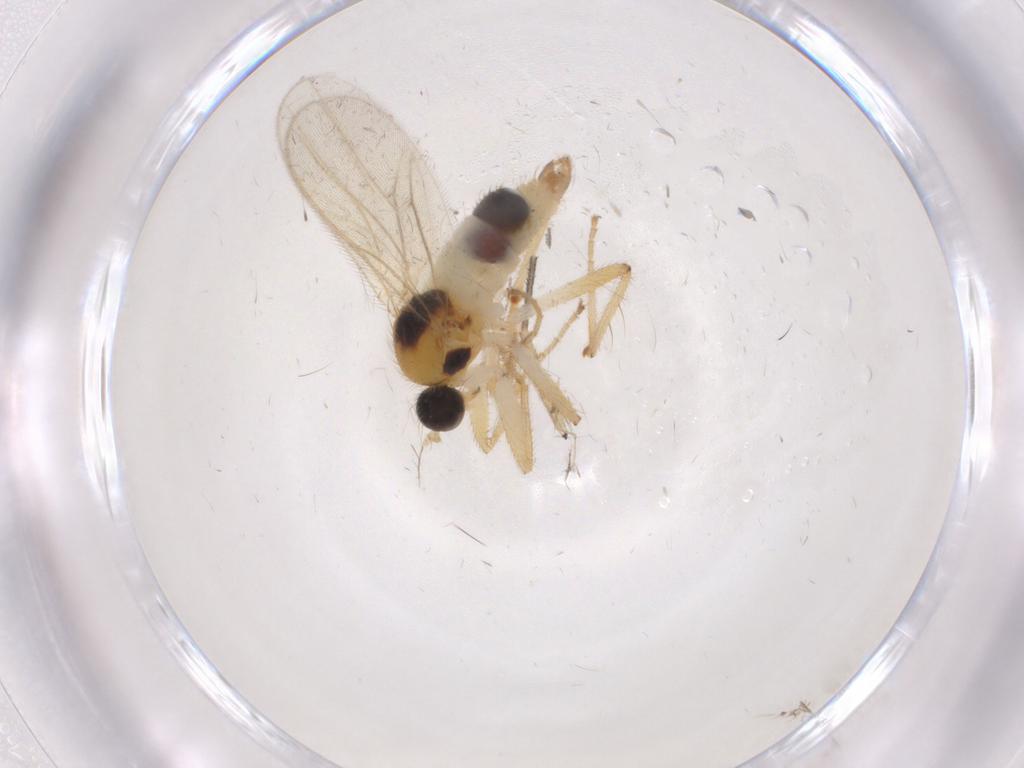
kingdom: Animalia
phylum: Arthropoda
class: Insecta
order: Diptera
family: Hybotidae
